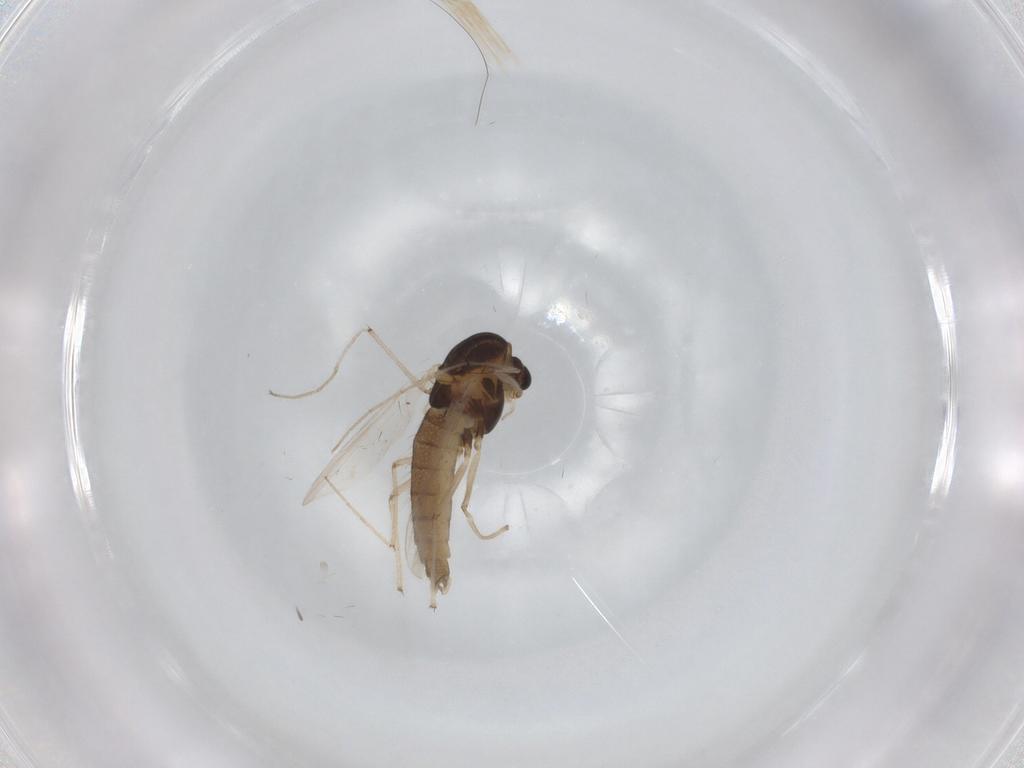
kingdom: Animalia
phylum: Arthropoda
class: Insecta
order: Diptera
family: Chironomidae
